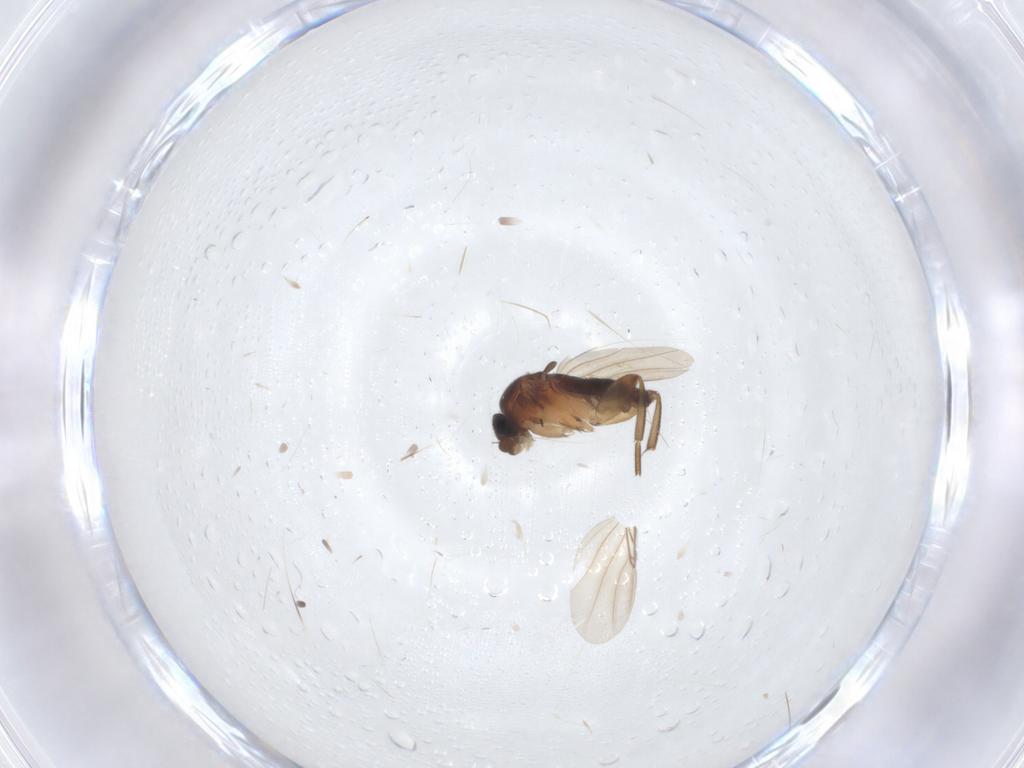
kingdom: Animalia
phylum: Arthropoda
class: Insecta
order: Diptera
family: Phoridae
